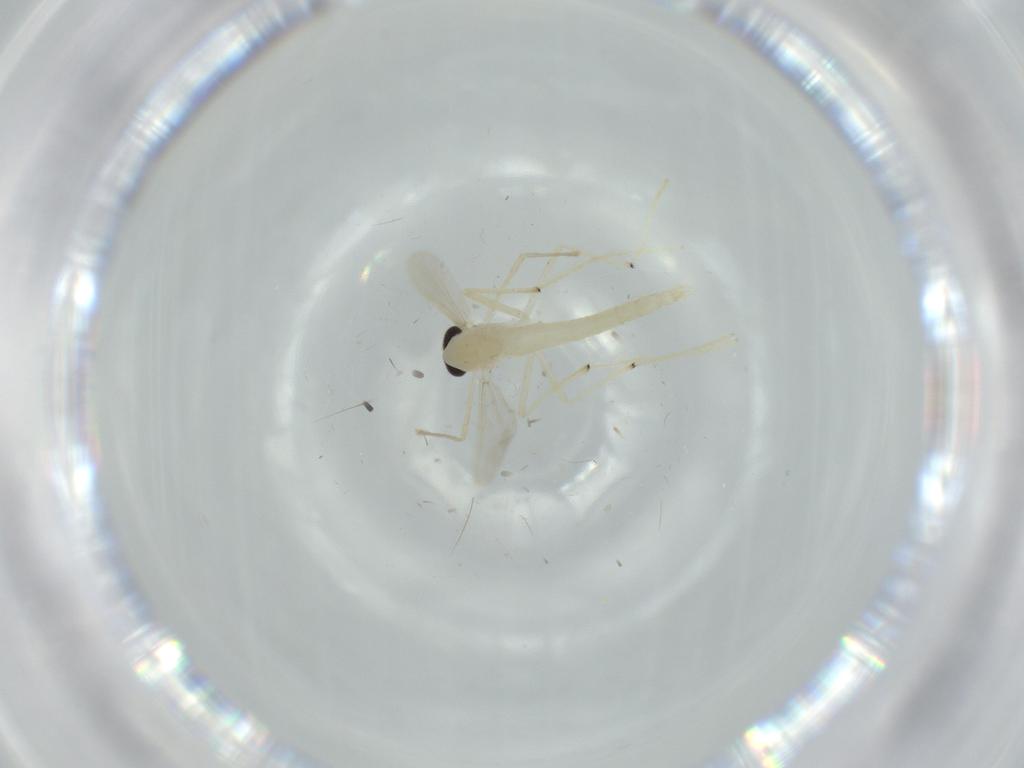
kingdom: Animalia
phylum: Arthropoda
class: Insecta
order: Diptera
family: Chironomidae
